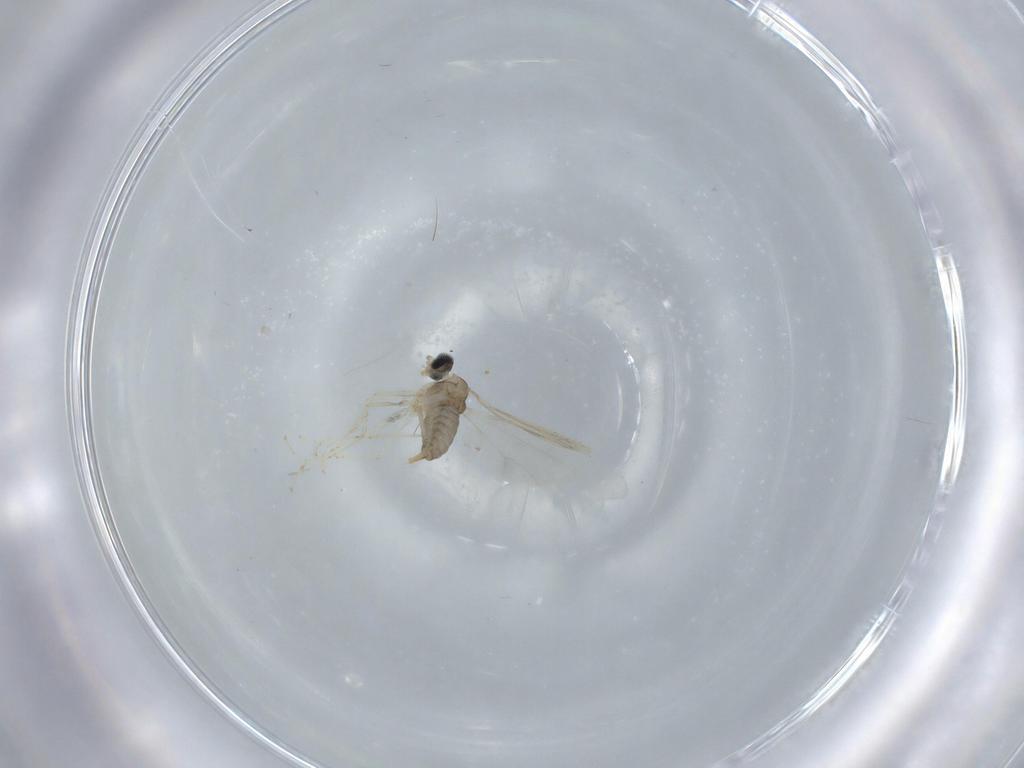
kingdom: Animalia
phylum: Arthropoda
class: Insecta
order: Diptera
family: Cecidomyiidae
